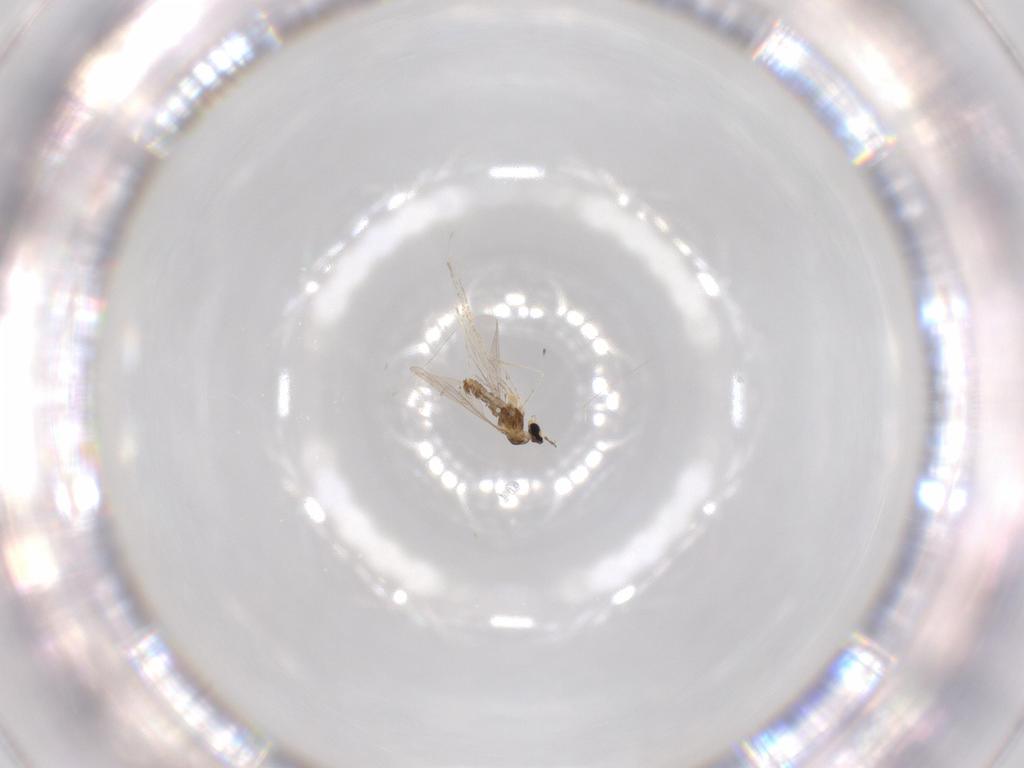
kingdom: Animalia
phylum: Arthropoda
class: Insecta
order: Diptera
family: Cecidomyiidae
